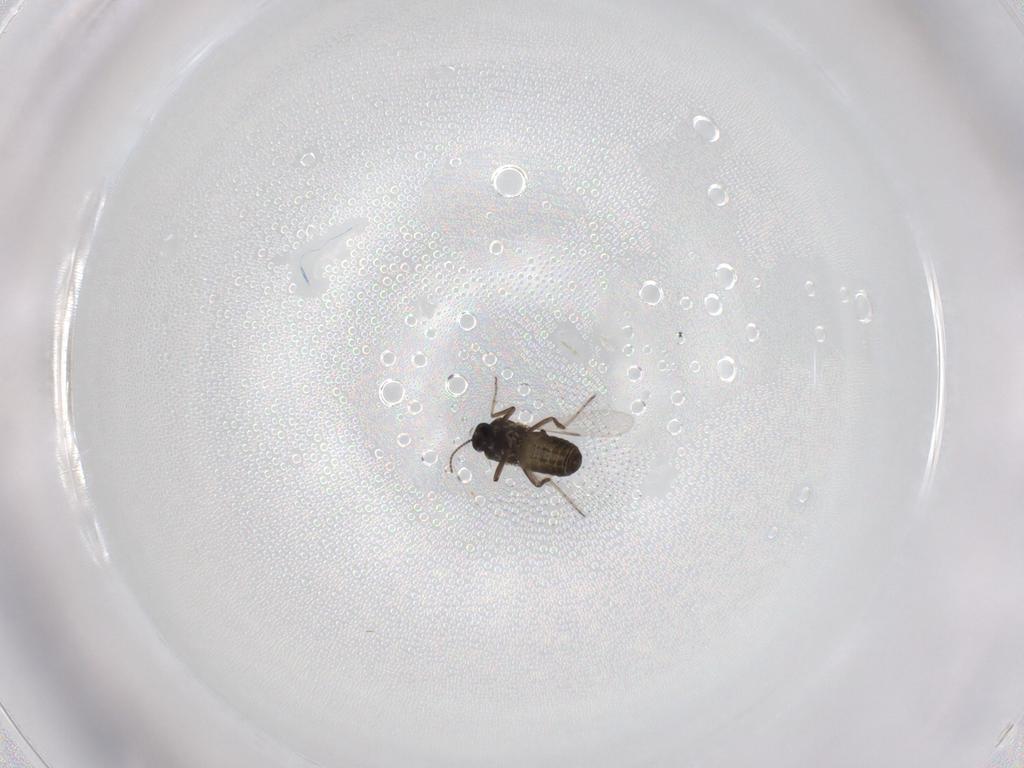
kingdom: Animalia
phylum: Arthropoda
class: Insecta
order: Diptera
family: Ceratopogonidae
